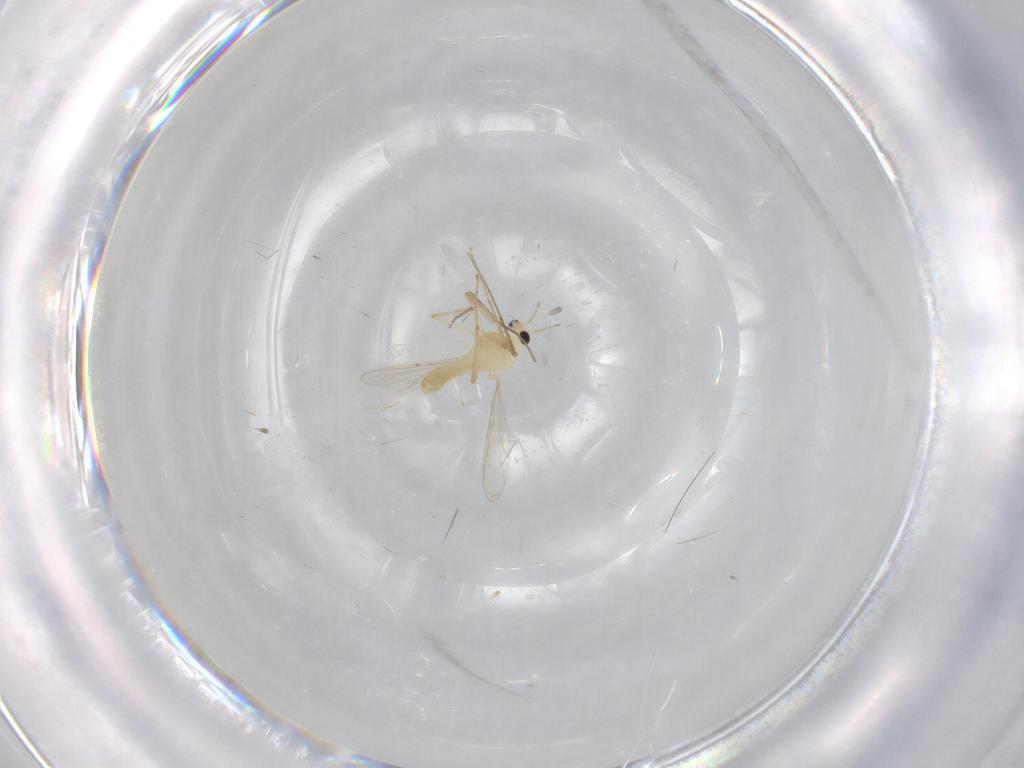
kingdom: Animalia
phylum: Arthropoda
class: Insecta
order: Diptera
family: Chironomidae
